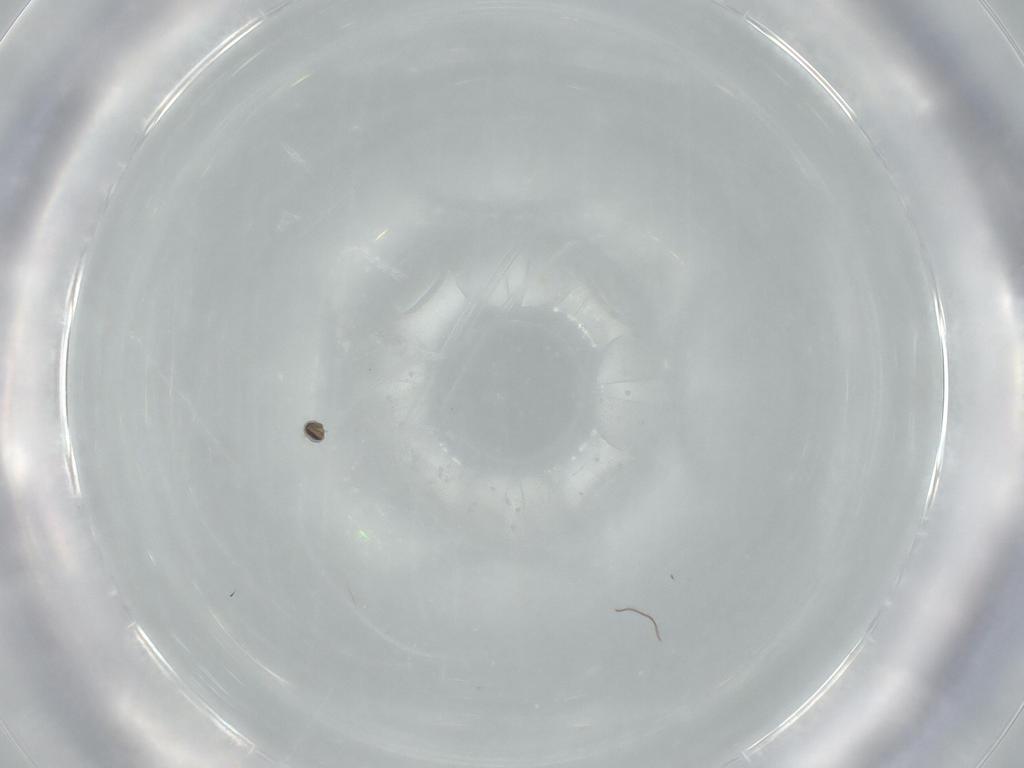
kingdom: Animalia
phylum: Arthropoda
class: Insecta
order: Diptera
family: Cecidomyiidae
